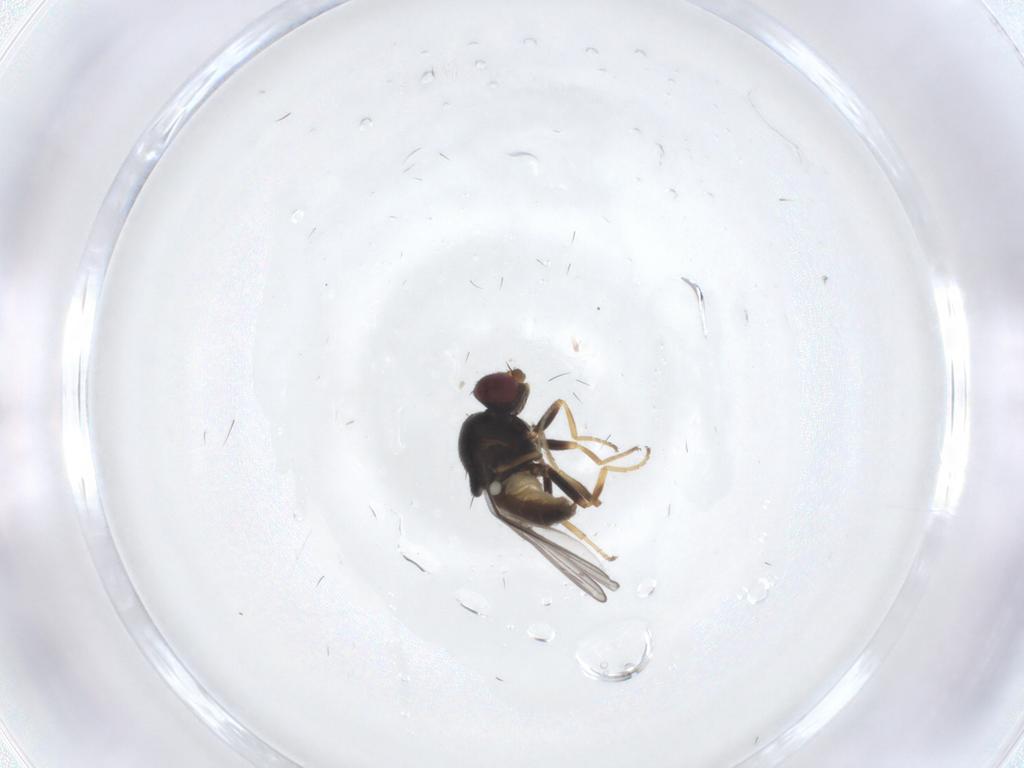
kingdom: Animalia
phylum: Arthropoda
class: Insecta
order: Diptera
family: Chloropidae
